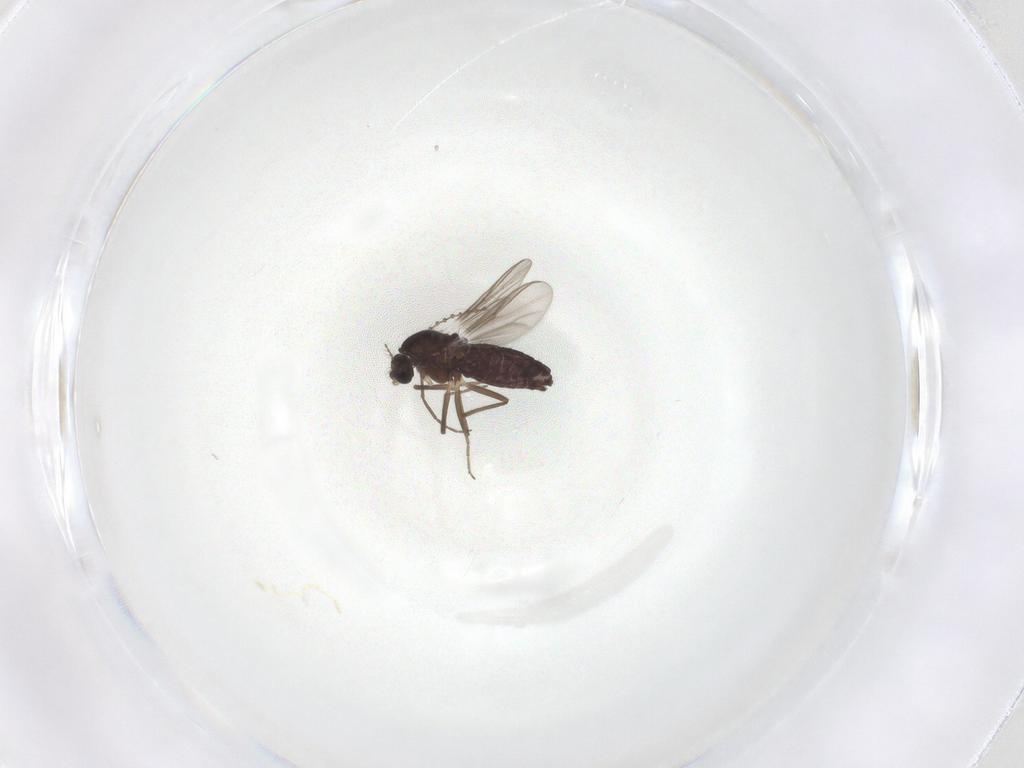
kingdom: Animalia
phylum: Arthropoda
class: Insecta
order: Diptera
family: Cecidomyiidae
